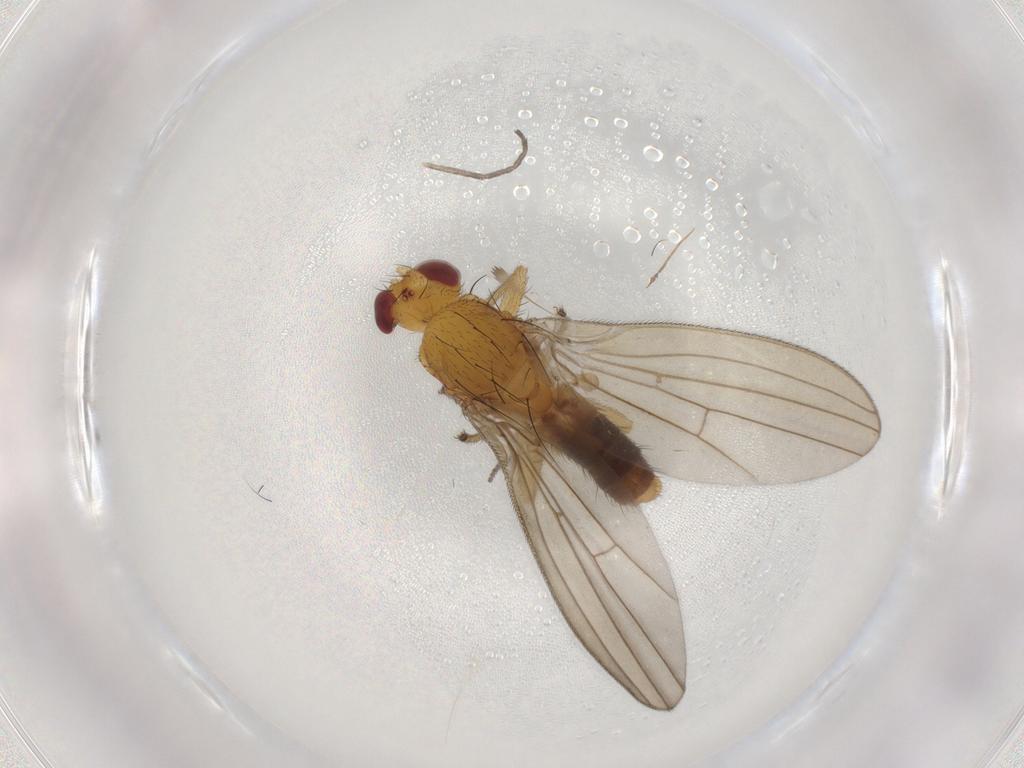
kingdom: Animalia
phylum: Arthropoda
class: Insecta
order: Diptera
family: Natalimyzidae
